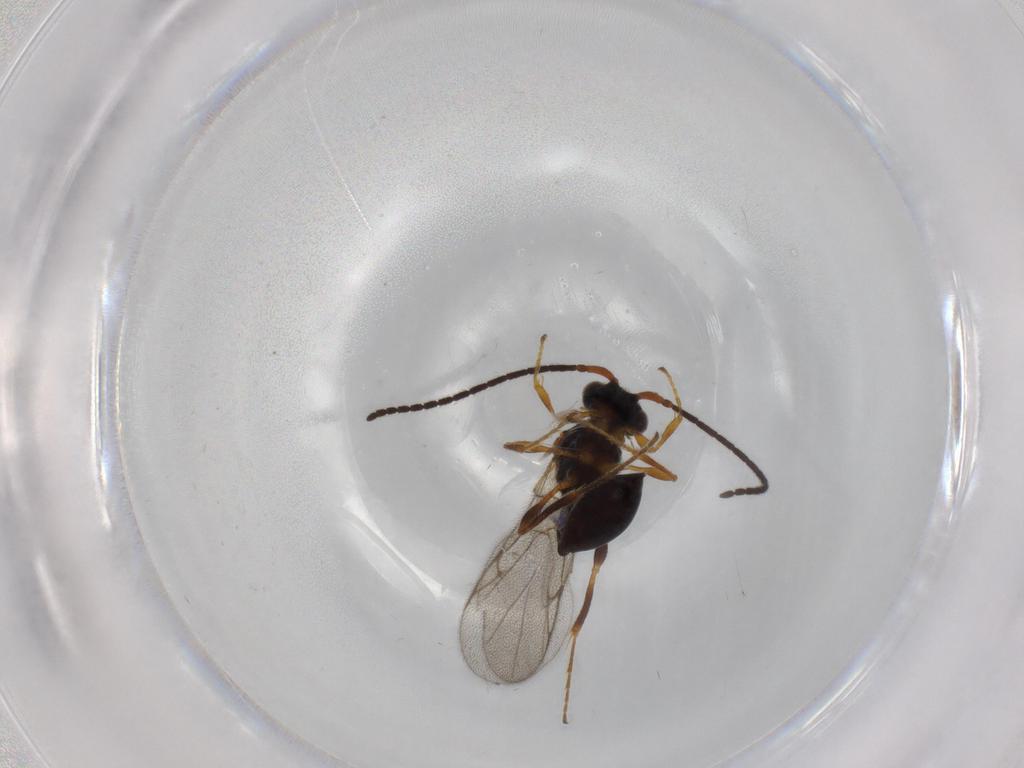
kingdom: Animalia
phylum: Arthropoda
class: Insecta
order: Hymenoptera
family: Diapriidae
